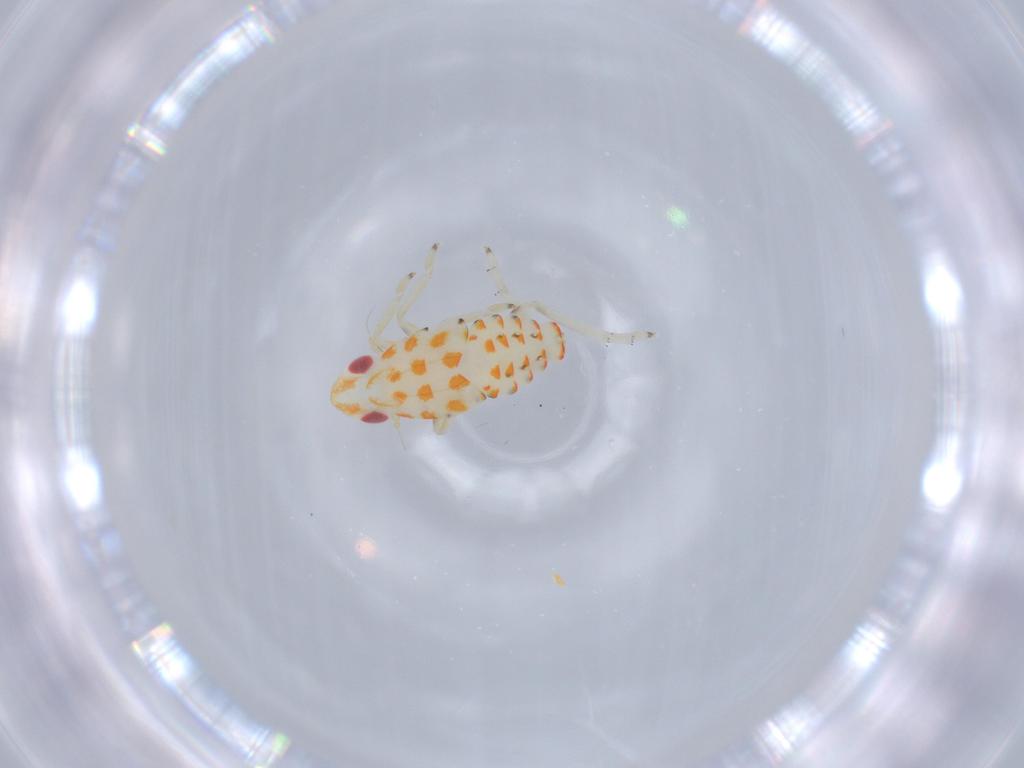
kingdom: Animalia
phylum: Arthropoda
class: Insecta
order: Hemiptera
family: Tropiduchidae
